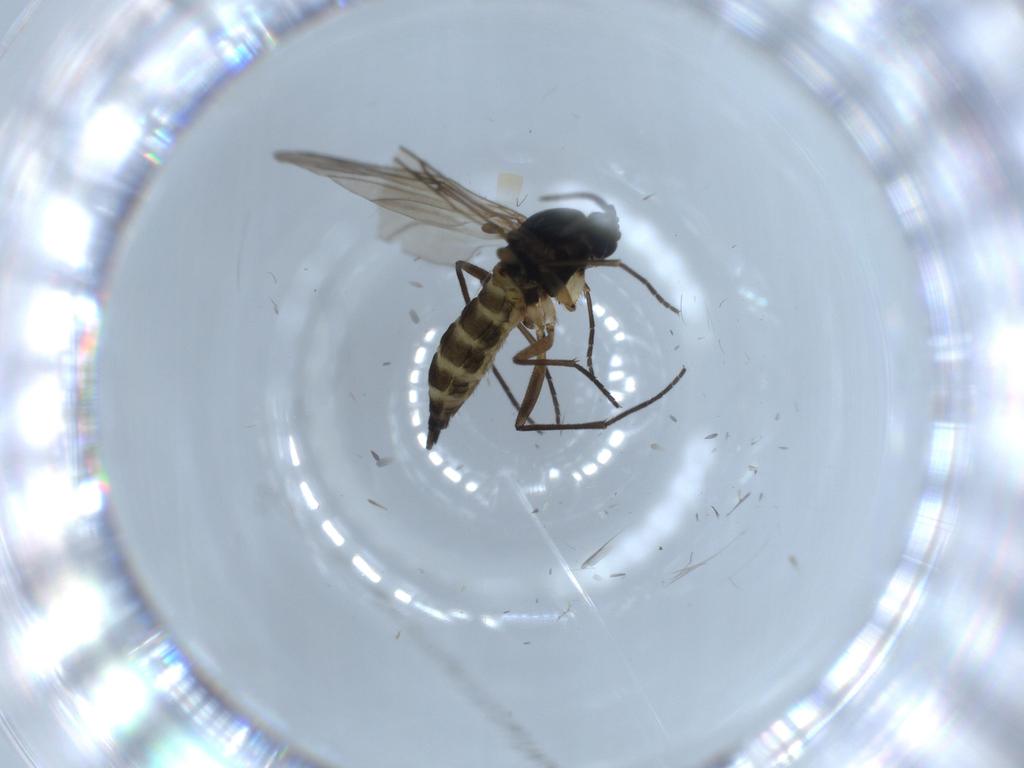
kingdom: Animalia
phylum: Arthropoda
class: Insecta
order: Diptera
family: Sciaridae
